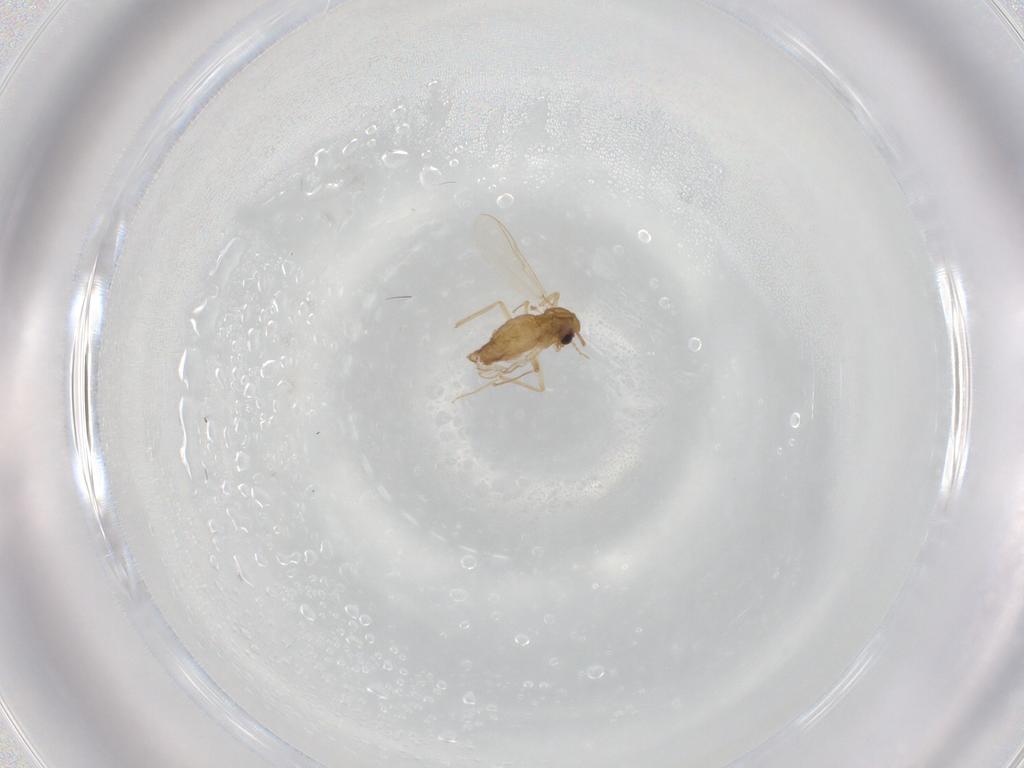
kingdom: Animalia
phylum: Arthropoda
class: Insecta
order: Diptera
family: Chironomidae
